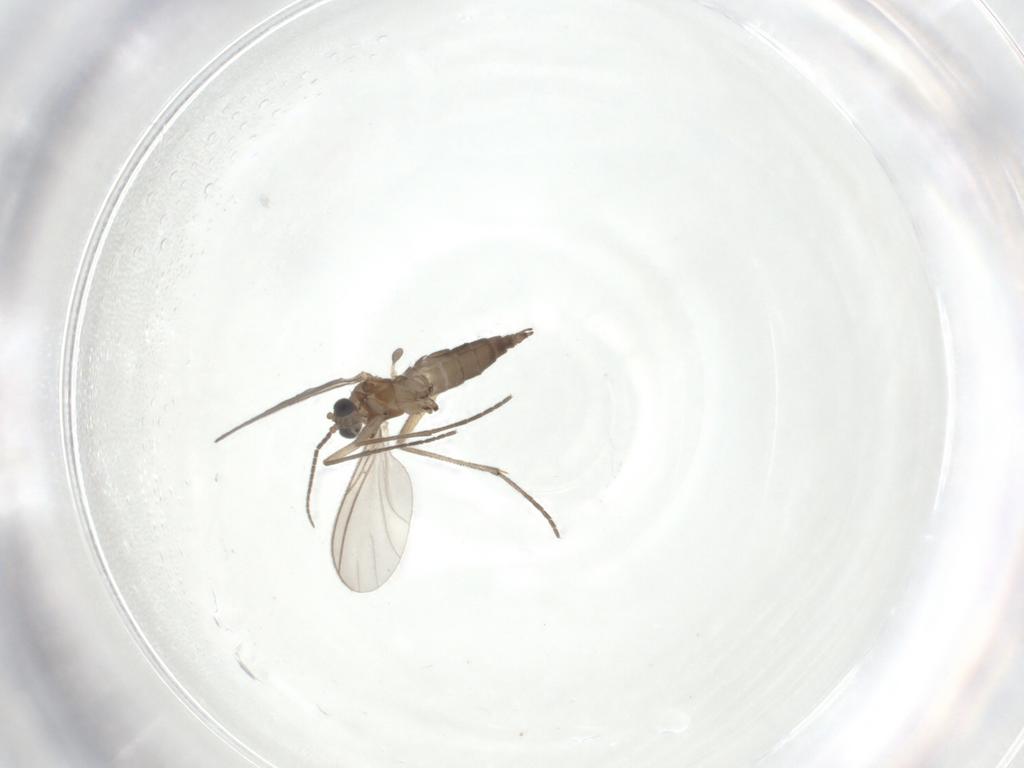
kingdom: Animalia
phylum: Arthropoda
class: Insecta
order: Diptera
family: Sciaridae
